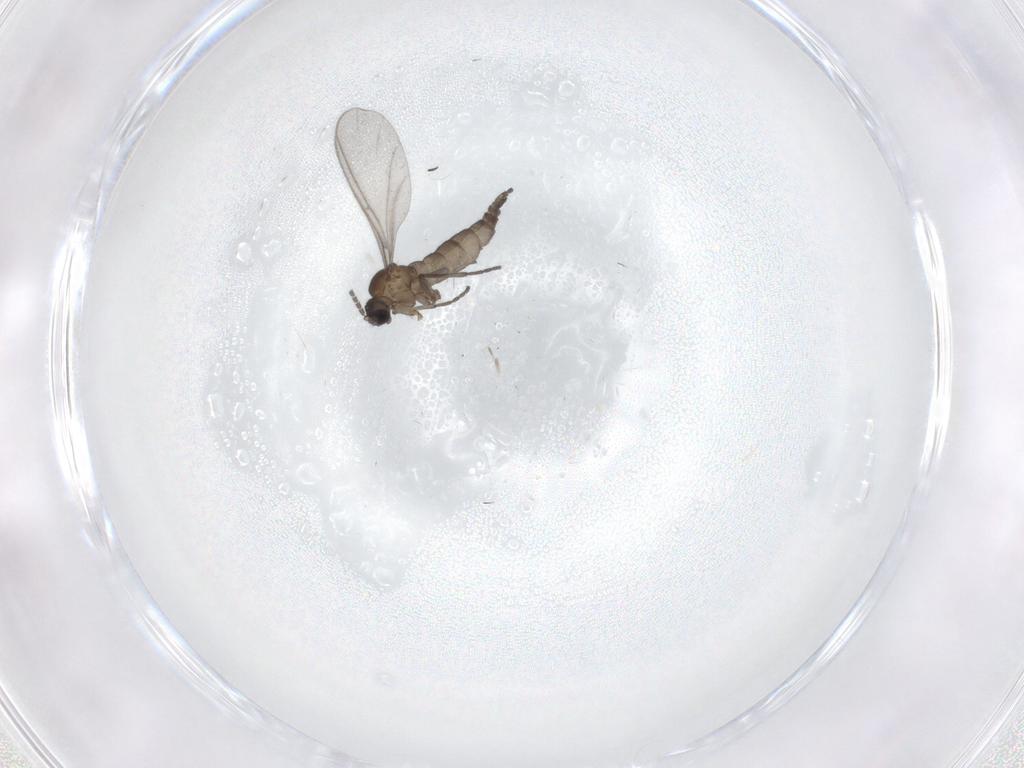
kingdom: Animalia
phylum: Arthropoda
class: Insecta
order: Diptera
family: Sciaridae
